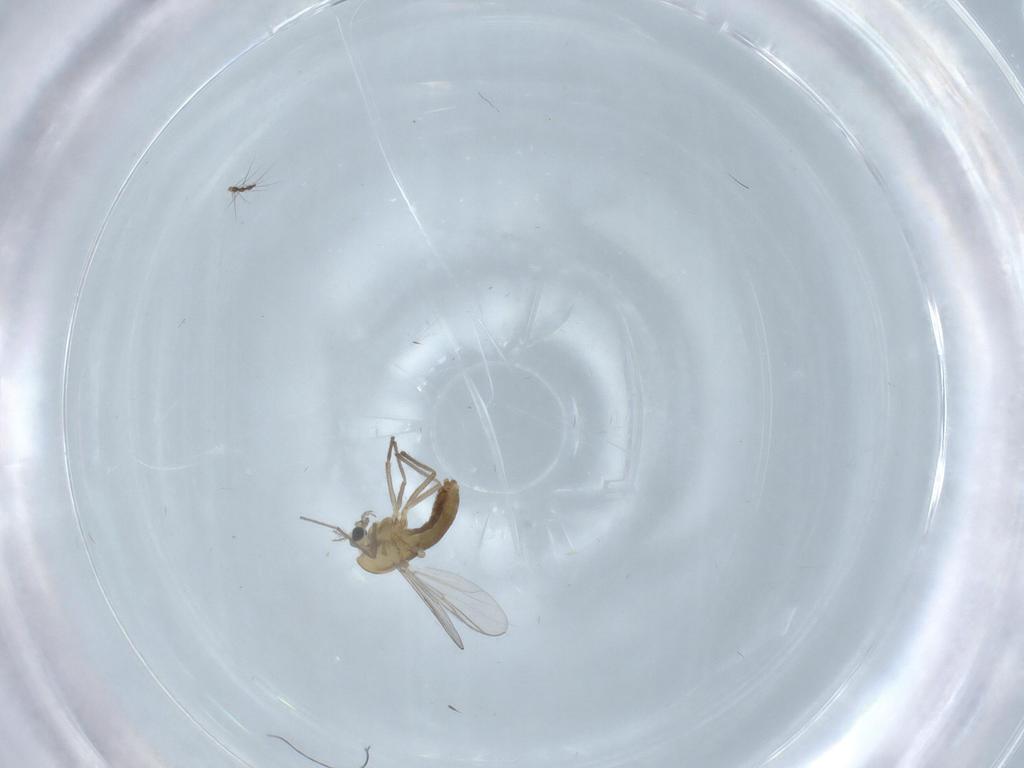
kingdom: Animalia
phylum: Arthropoda
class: Insecta
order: Diptera
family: Chironomidae
